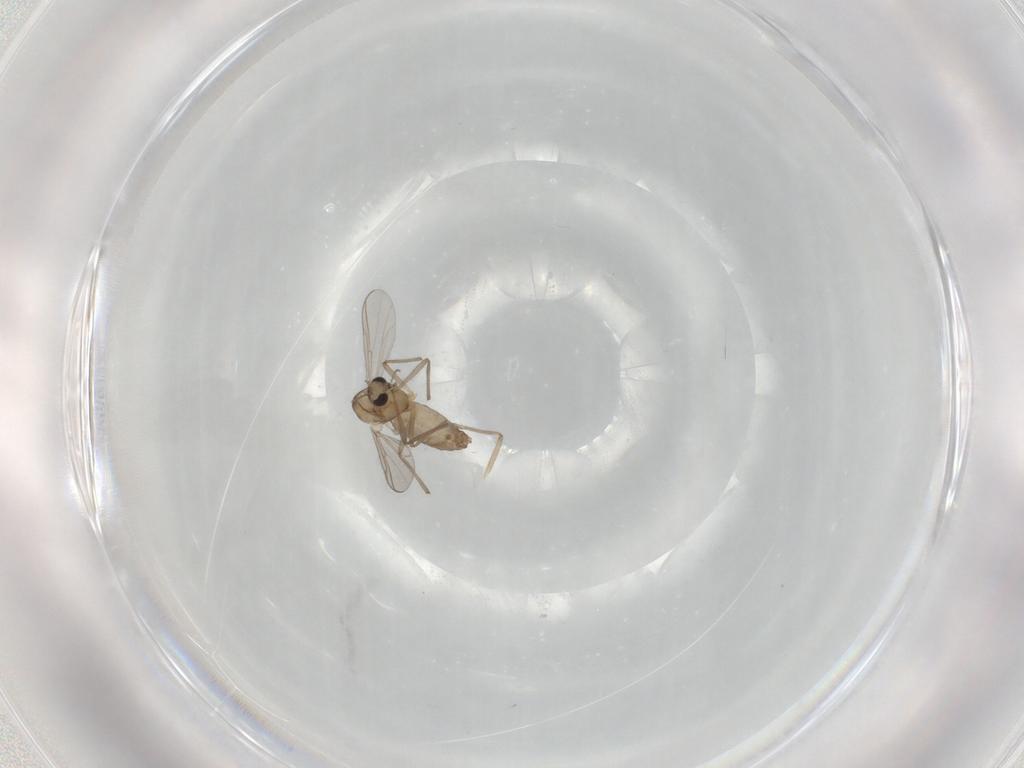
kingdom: Animalia
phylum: Arthropoda
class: Insecta
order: Diptera
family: Chironomidae
